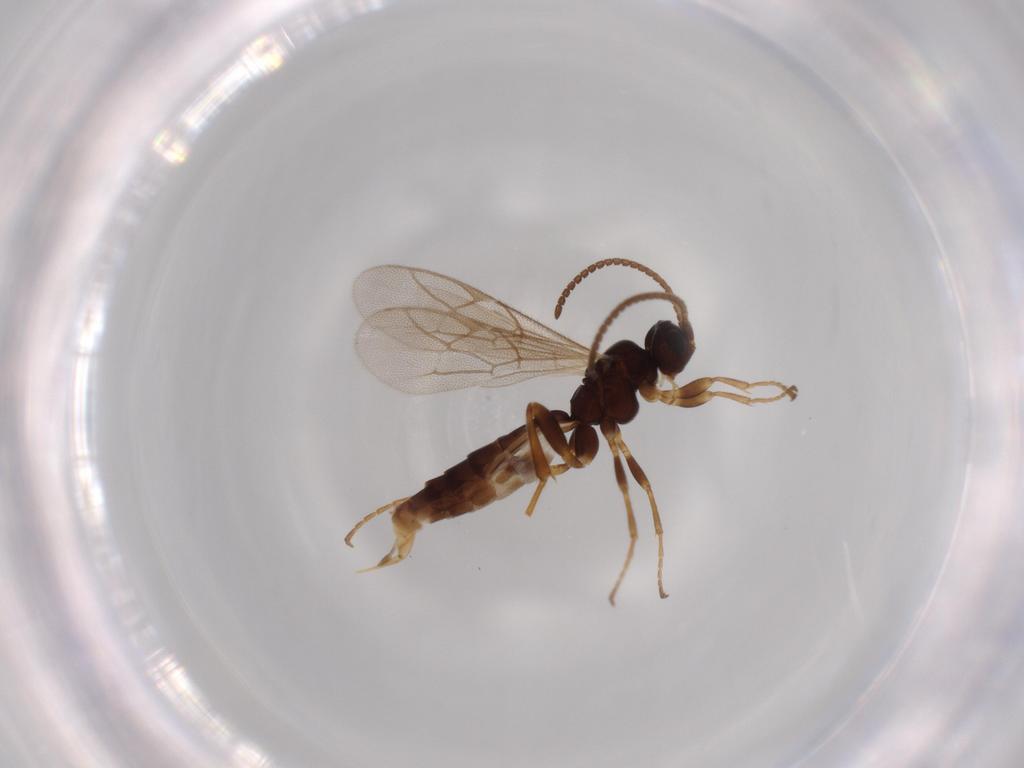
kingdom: Animalia
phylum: Arthropoda
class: Insecta
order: Hymenoptera
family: Ichneumonidae
